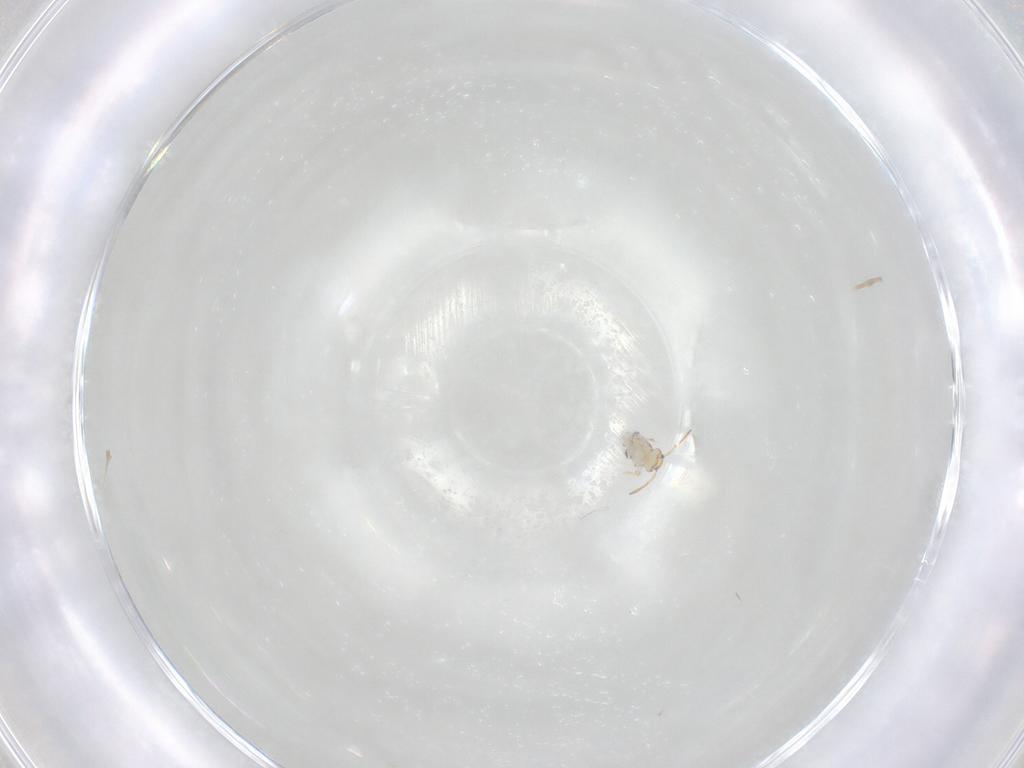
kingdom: Animalia
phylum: Arthropoda
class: Collembola
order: Symphypleona
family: Bourletiellidae
